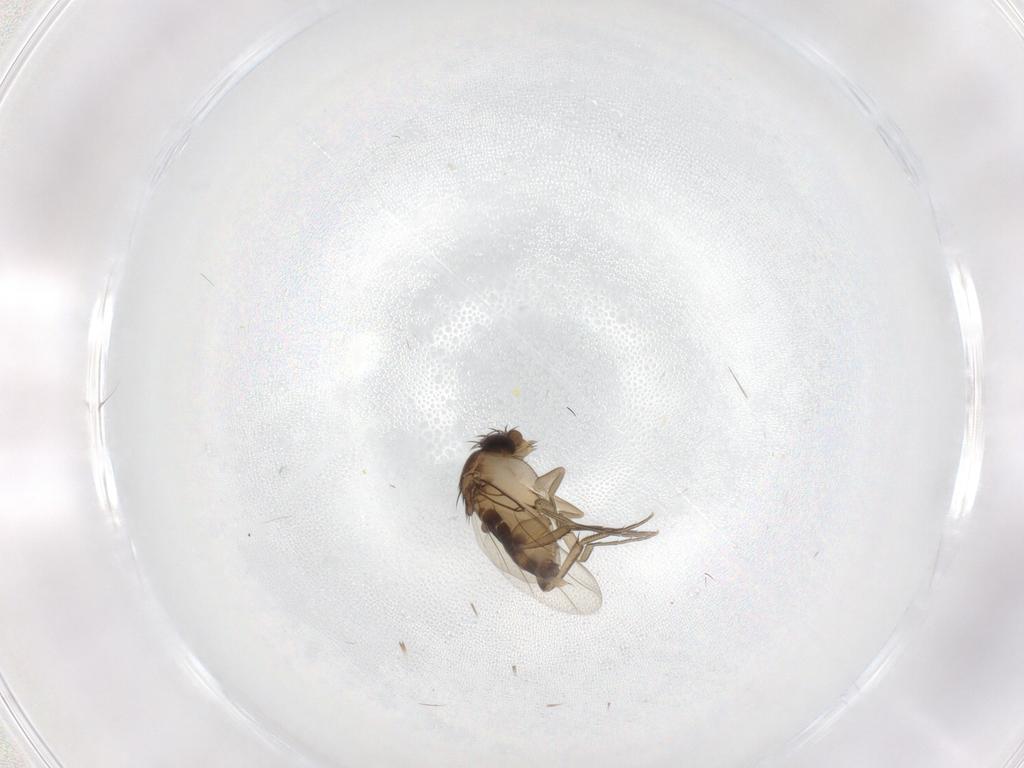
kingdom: Animalia
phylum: Arthropoda
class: Insecta
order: Diptera
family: Phoridae
